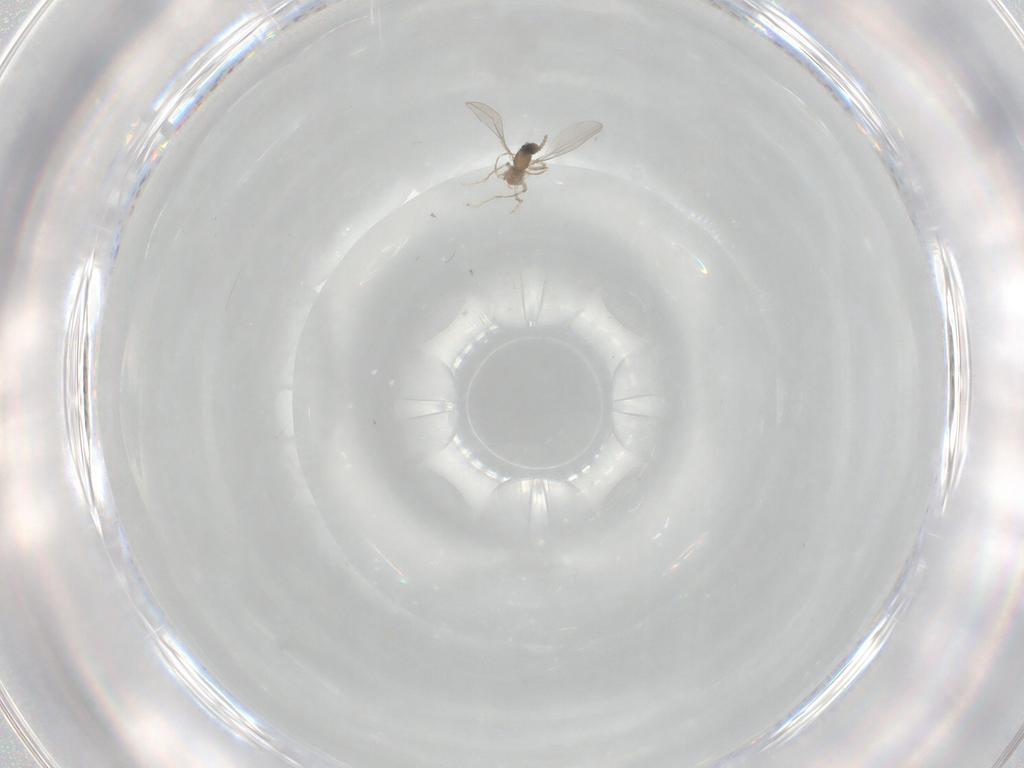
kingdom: Animalia
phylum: Arthropoda
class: Insecta
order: Diptera
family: Cecidomyiidae
